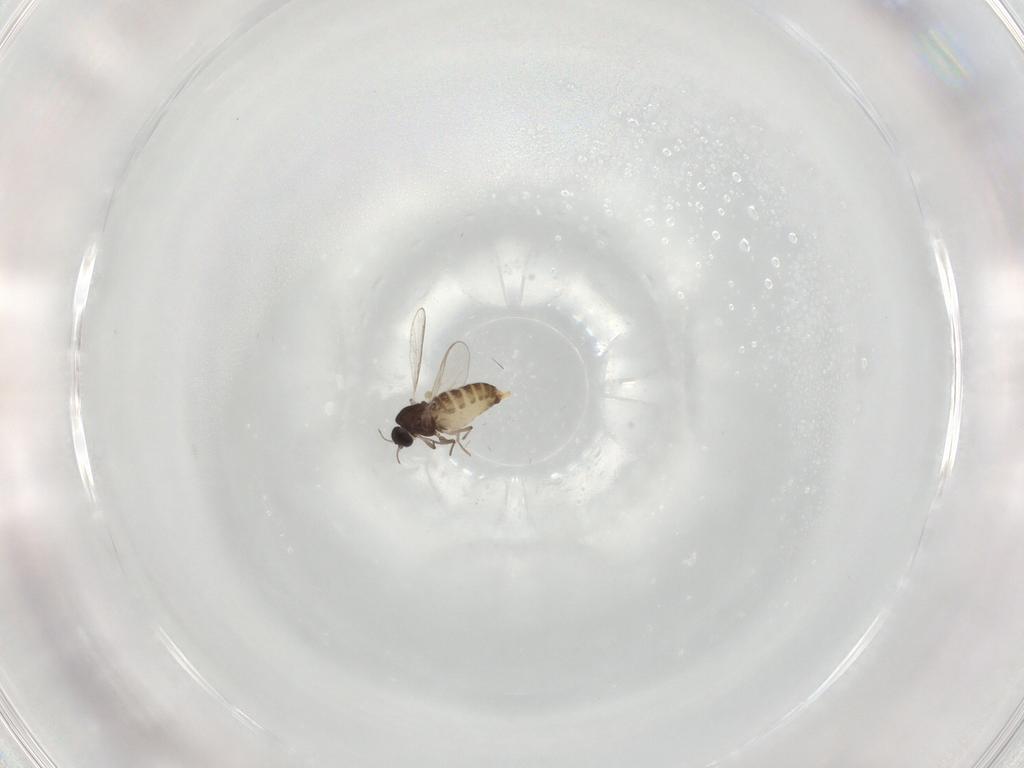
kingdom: Animalia
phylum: Arthropoda
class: Insecta
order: Diptera
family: Chironomidae
